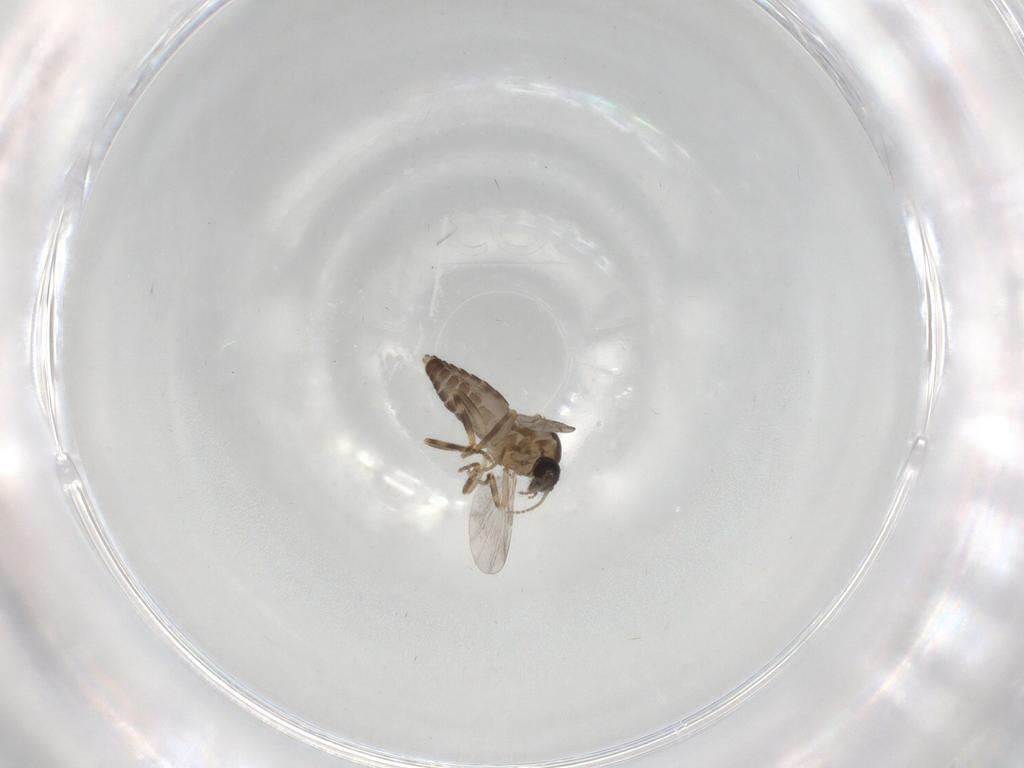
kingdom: Animalia
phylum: Arthropoda
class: Insecta
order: Diptera
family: Ceratopogonidae
